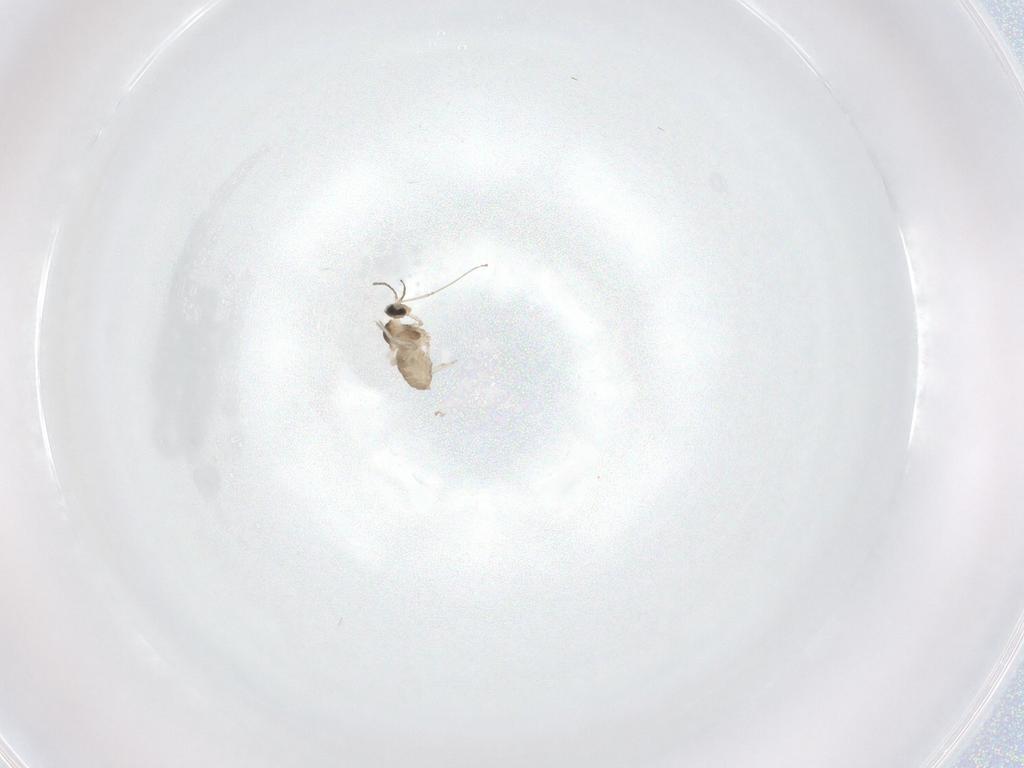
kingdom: Animalia
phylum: Arthropoda
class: Insecta
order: Diptera
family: Cecidomyiidae
